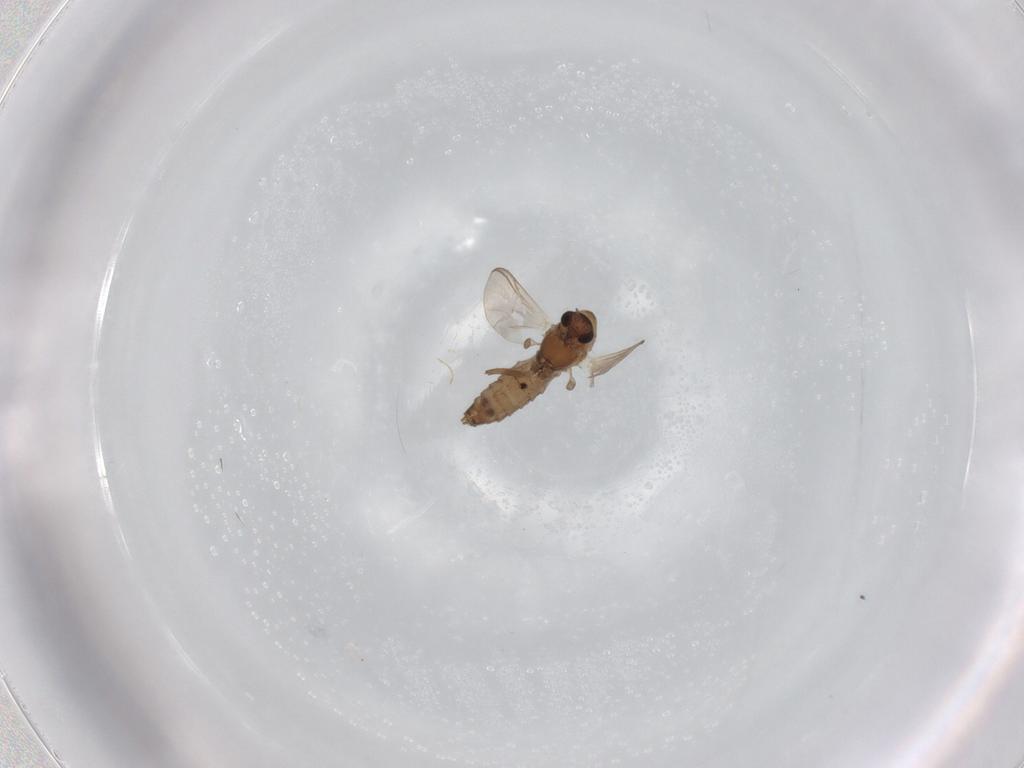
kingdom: Animalia
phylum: Arthropoda
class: Insecta
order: Diptera
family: Chironomidae
